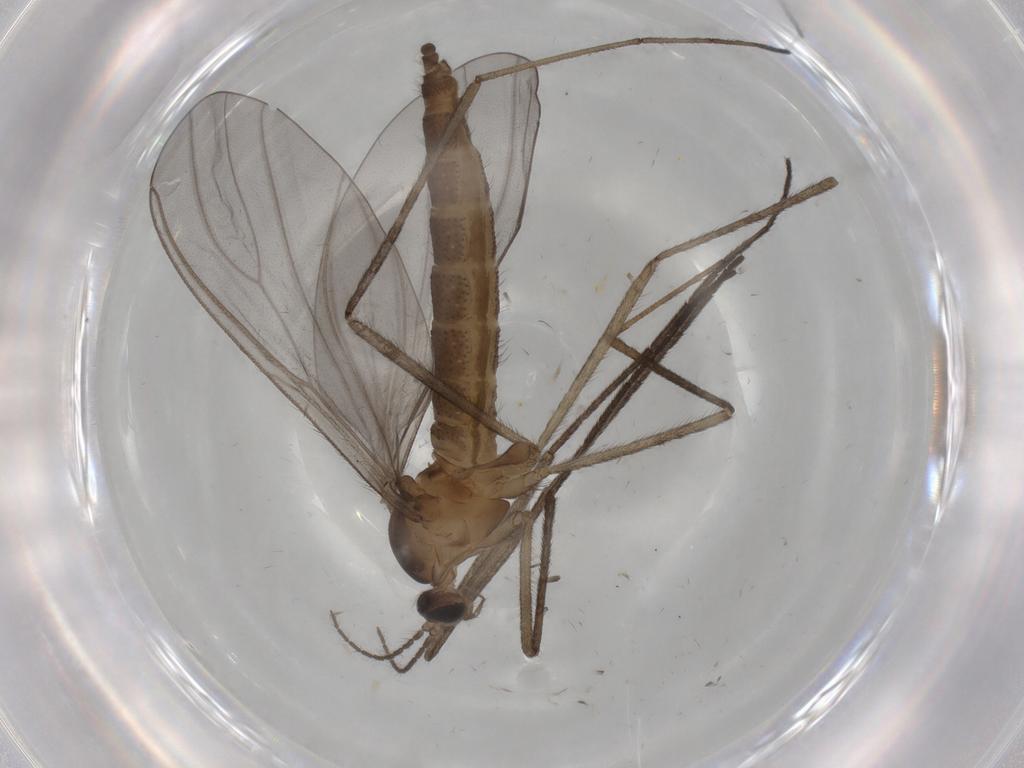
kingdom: Animalia
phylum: Arthropoda
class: Insecta
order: Diptera
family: Cecidomyiidae
